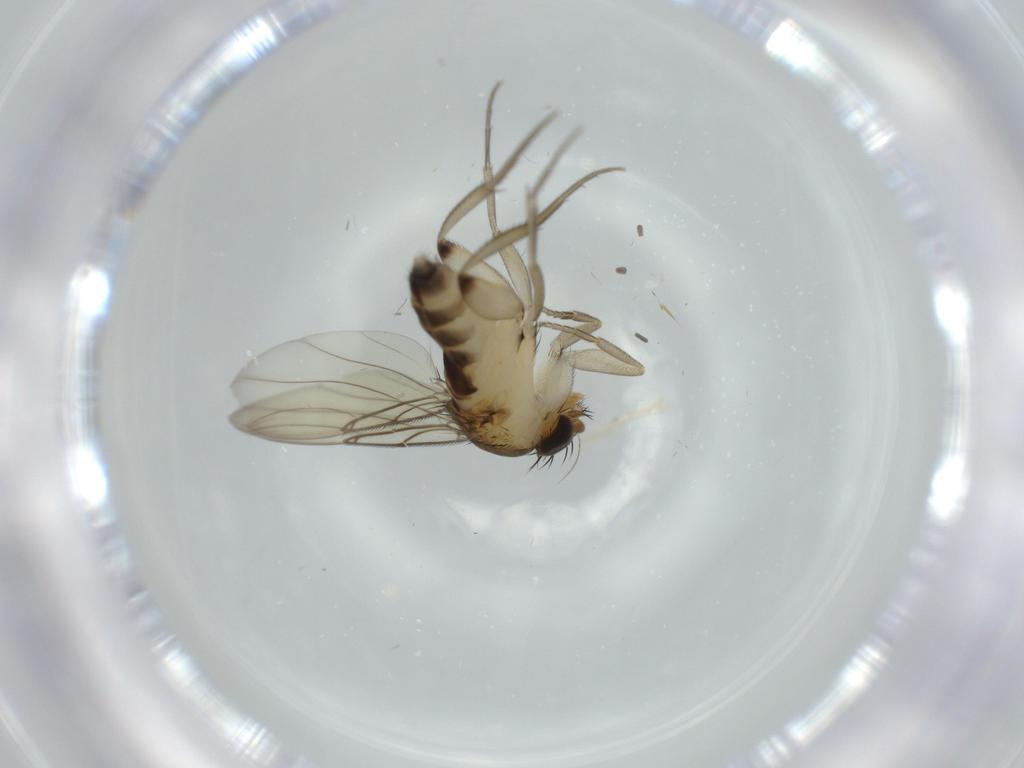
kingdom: Animalia
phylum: Arthropoda
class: Insecta
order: Diptera
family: Phoridae
